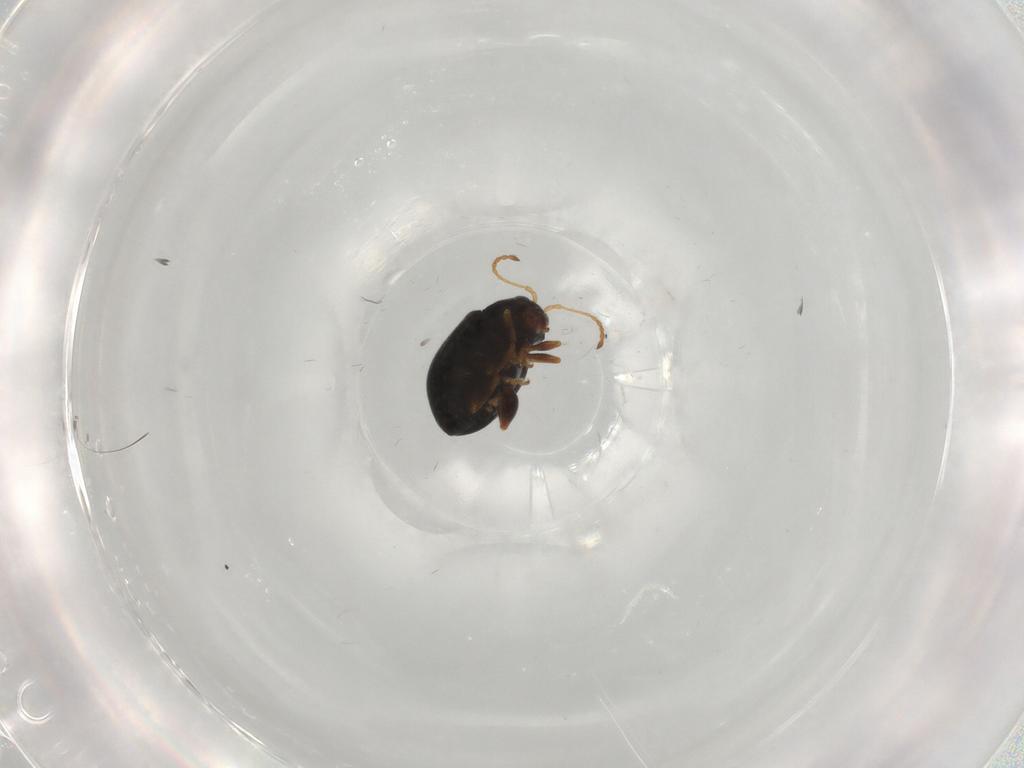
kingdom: Animalia
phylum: Arthropoda
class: Insecta
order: Coleoptera
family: Chrysomelidae
